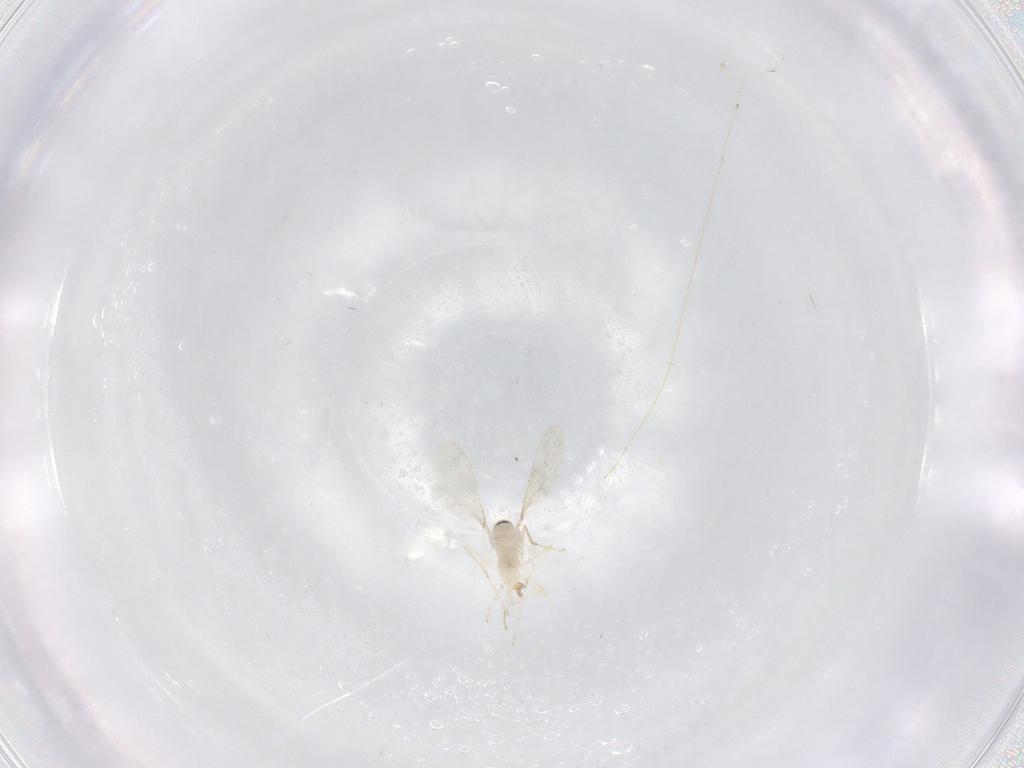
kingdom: Animalia
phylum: Arthropoda
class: Insecta
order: Diptera
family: Cecidomyiidae
